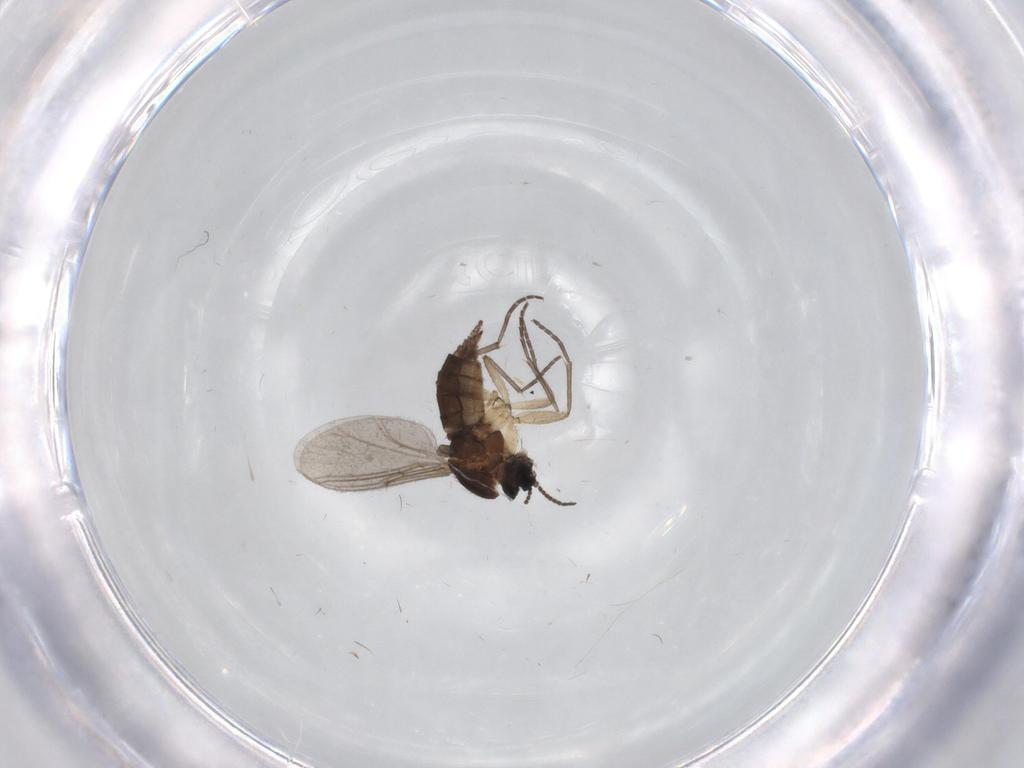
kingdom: Animalia
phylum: Arthropoda
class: Insecta
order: Diptera
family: Sciaridae
